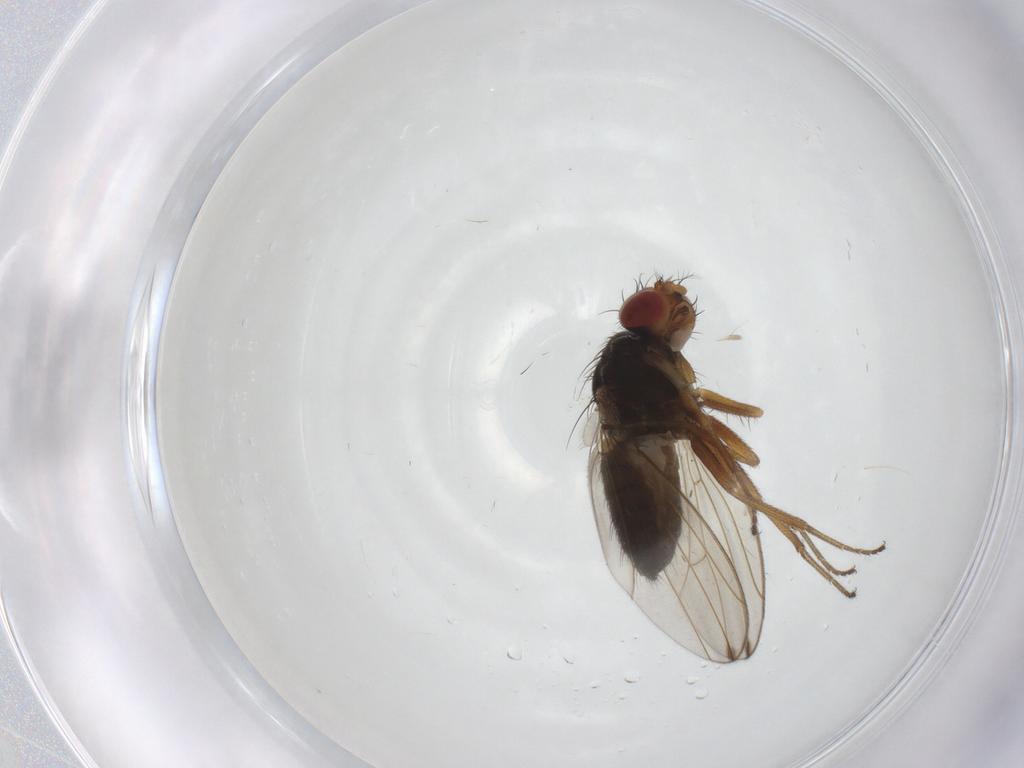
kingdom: Animalia
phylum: Arthropoda
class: Insecta
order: Diptera
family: Drosophilidae
